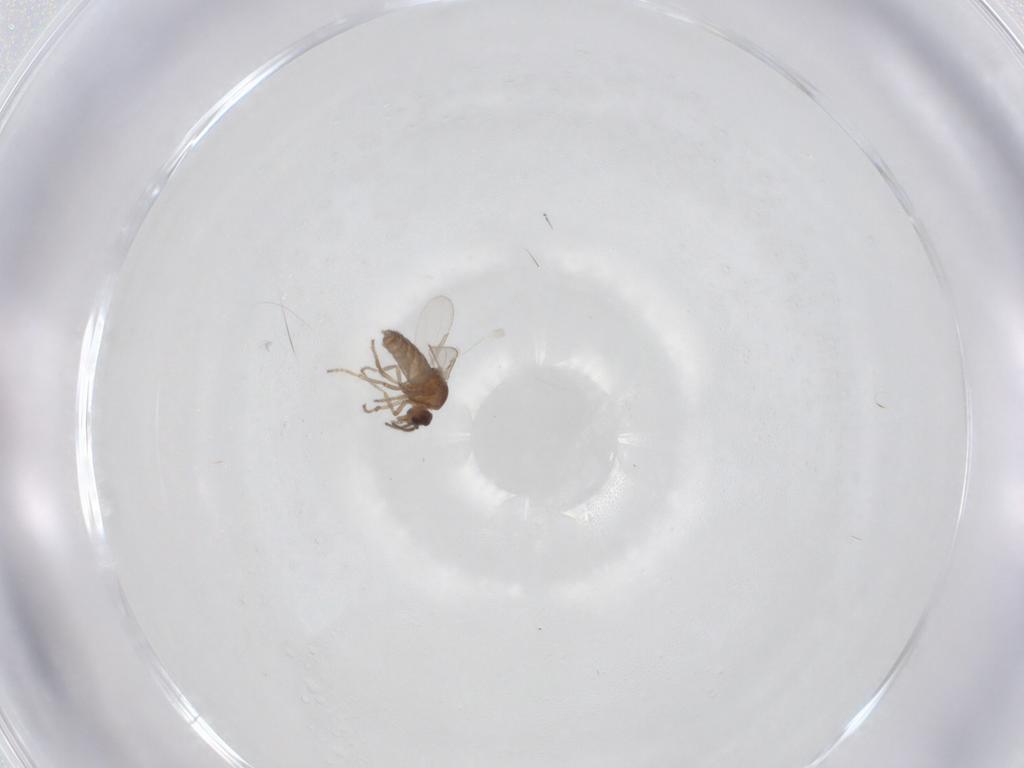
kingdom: Animalia
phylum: Arthropoda
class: Insecta
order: Diptera
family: Ceratopogonidae
